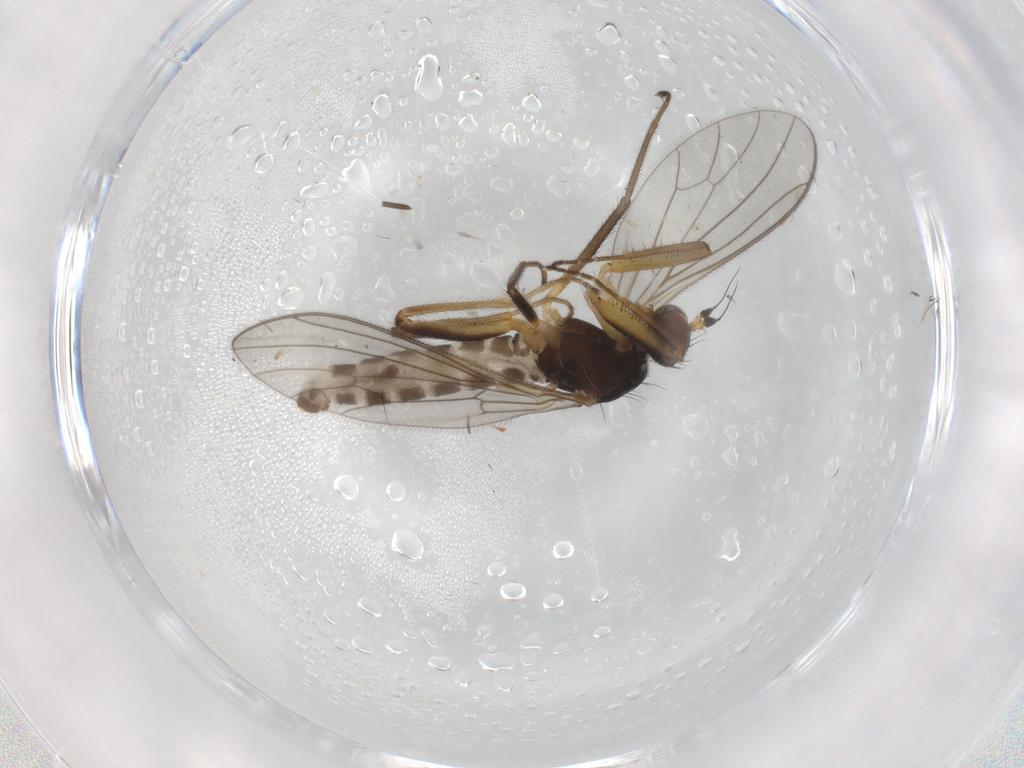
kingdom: Animalia
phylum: Arthropoda
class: Insecta
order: Diptera
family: Empididae
